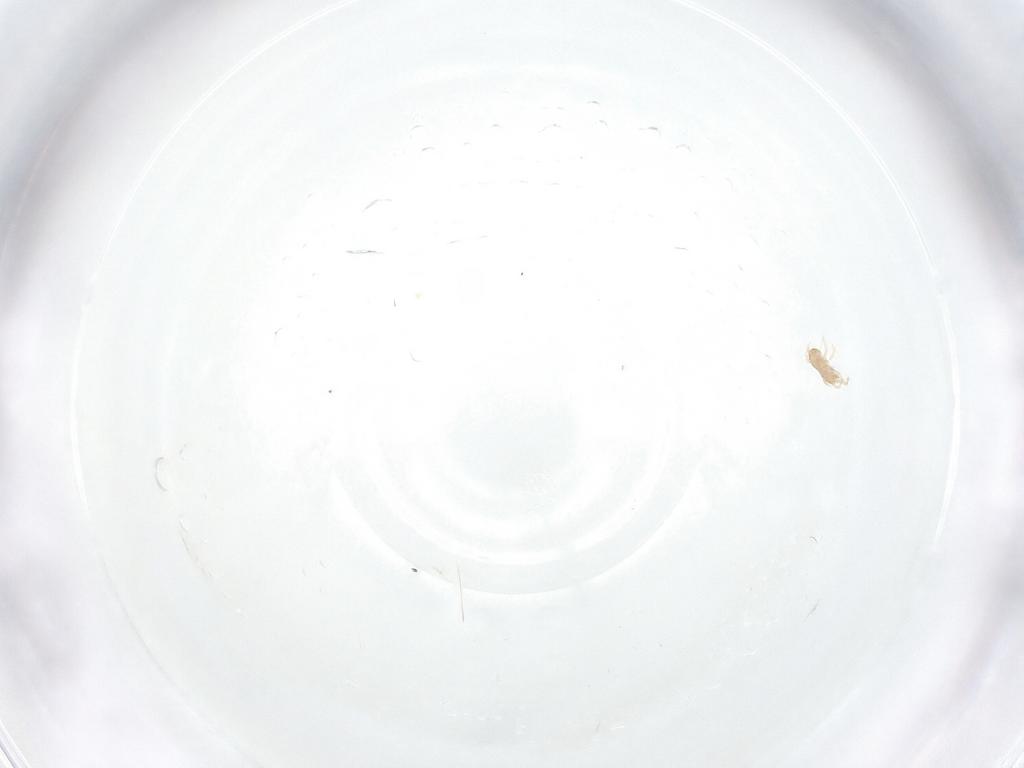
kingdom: Animalia
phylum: Arthropoda
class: Arachnida
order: Mesostigmata
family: Ascidae
